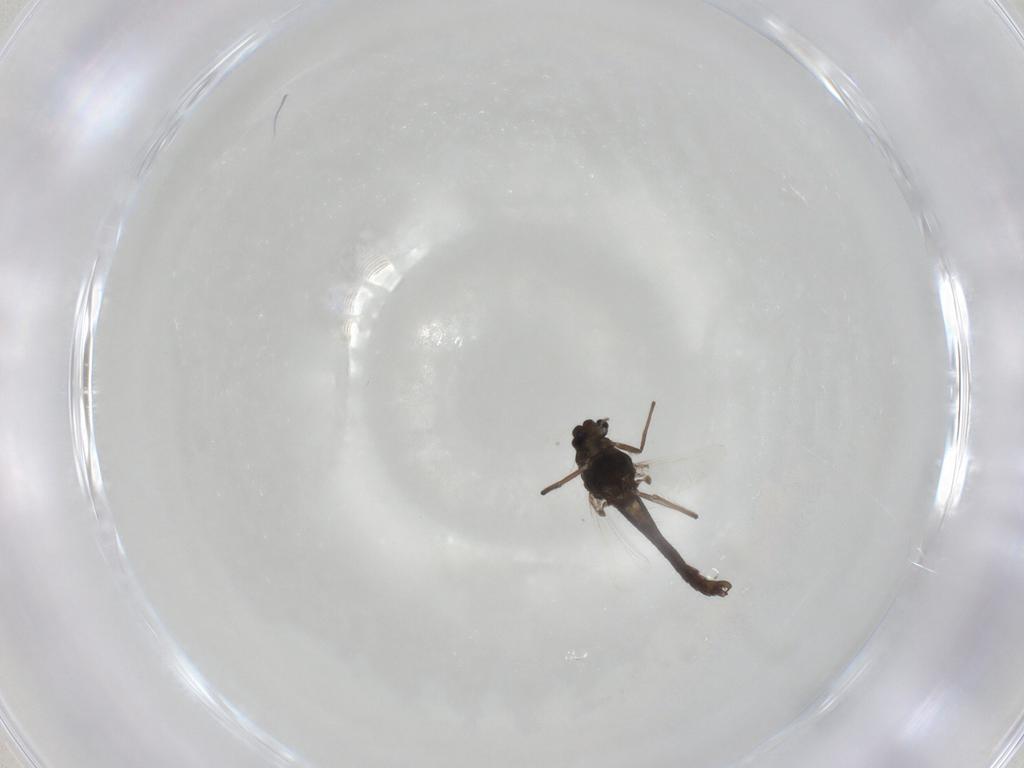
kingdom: Animalia
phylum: Arthropoda
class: Insecta
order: Diptera
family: Chironomidae
